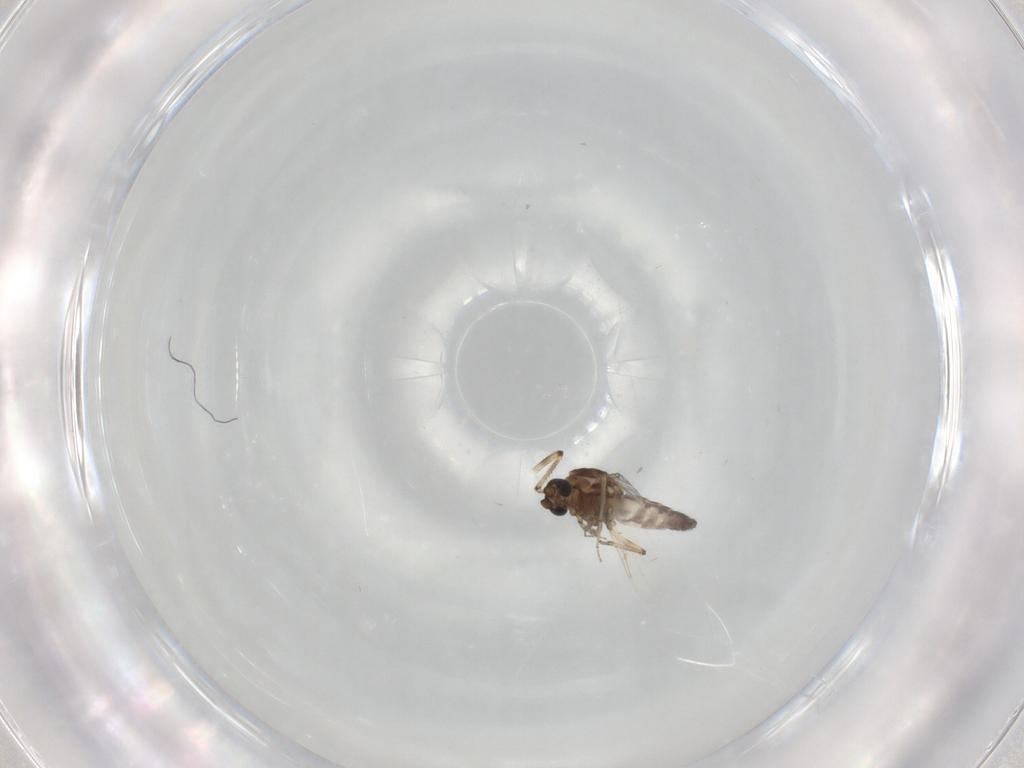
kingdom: Animalia
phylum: Arthropoda
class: Insecta
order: Diptera
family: Ceratopogonidae
